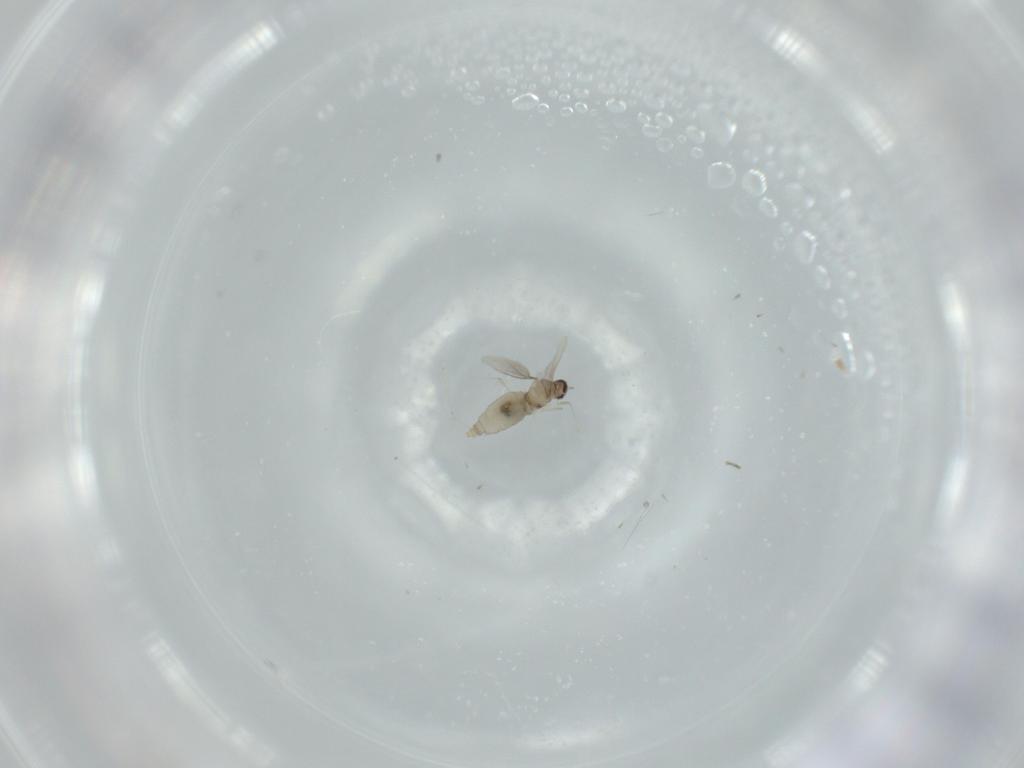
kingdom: Animalia
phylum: Arthropoda
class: Insecta
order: Diptera
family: Cecidomyiidae
